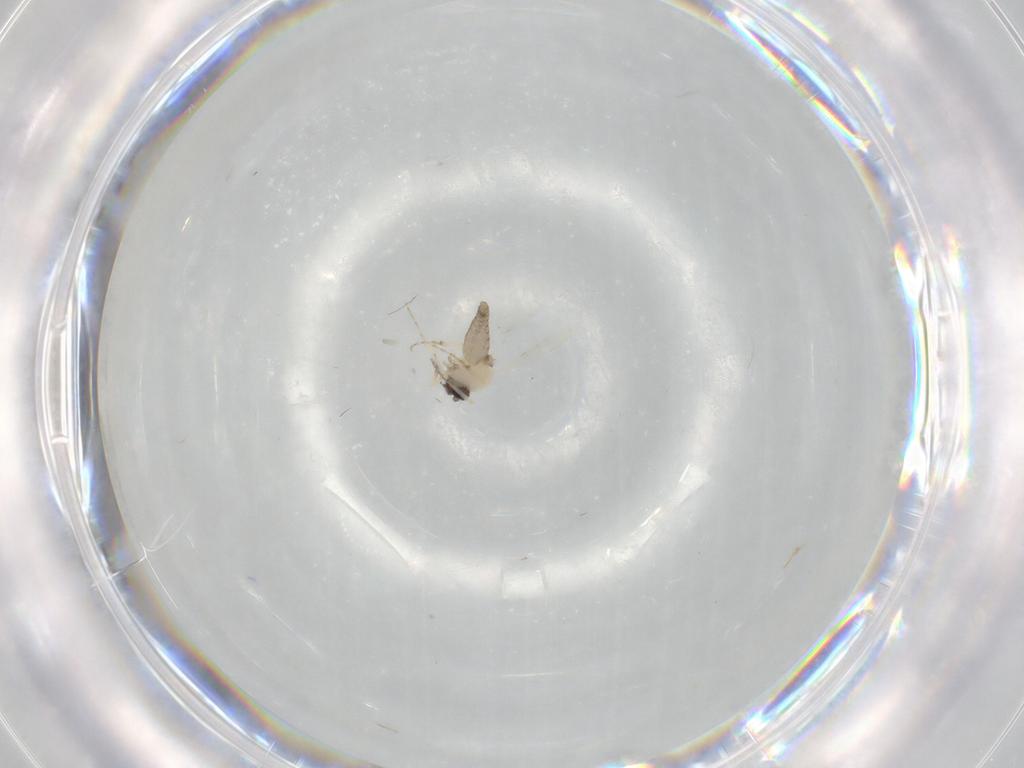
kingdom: Animalia
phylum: Arthropoda
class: Insecta
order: Diptera
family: Ceratopogonidae
